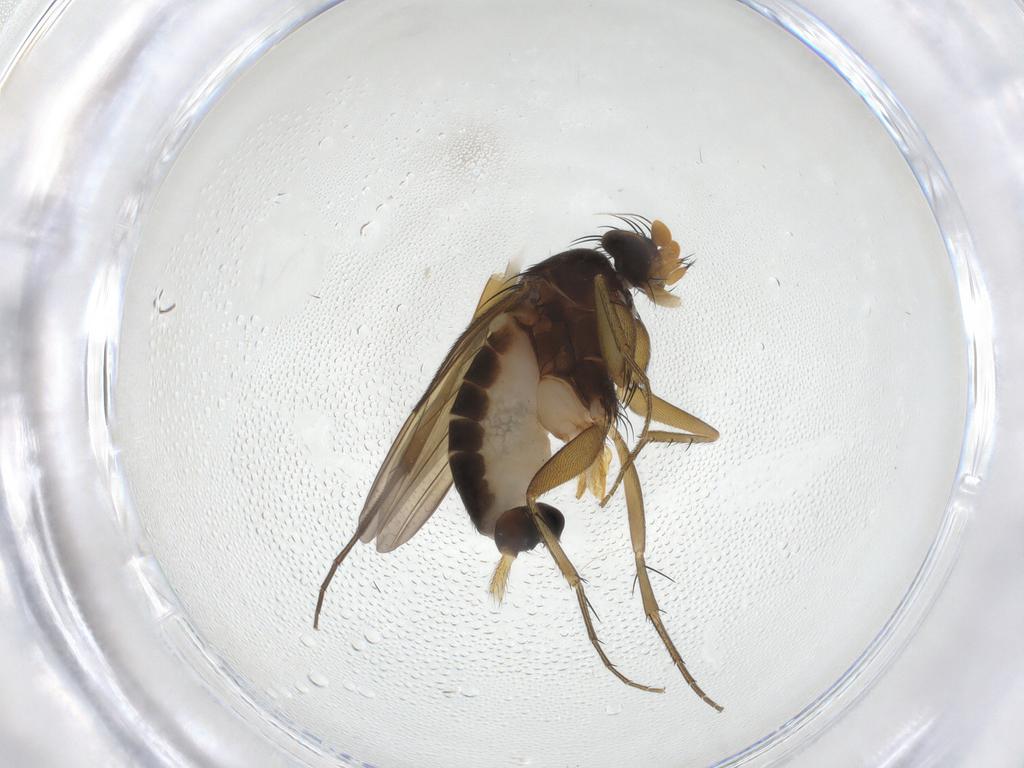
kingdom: Animalia
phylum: Arthropoda
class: Insecta
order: Diptera
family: Phoridae
